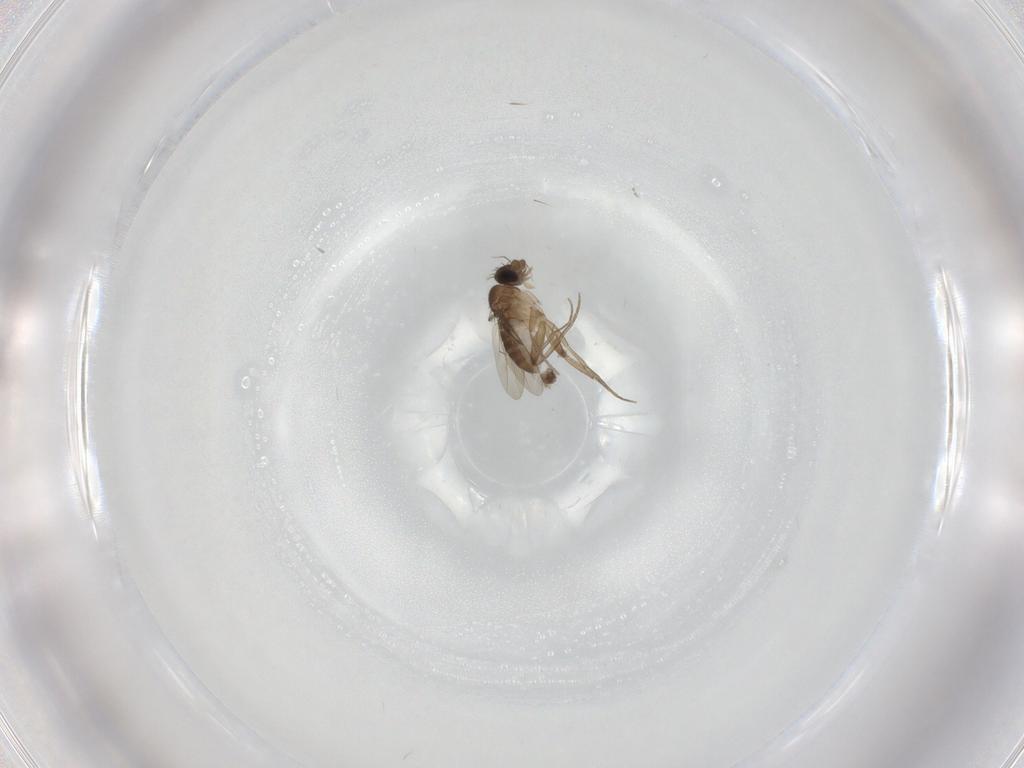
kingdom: Animalia
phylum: Arthropoda
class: Insecta
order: Diptera
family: Phoridae
